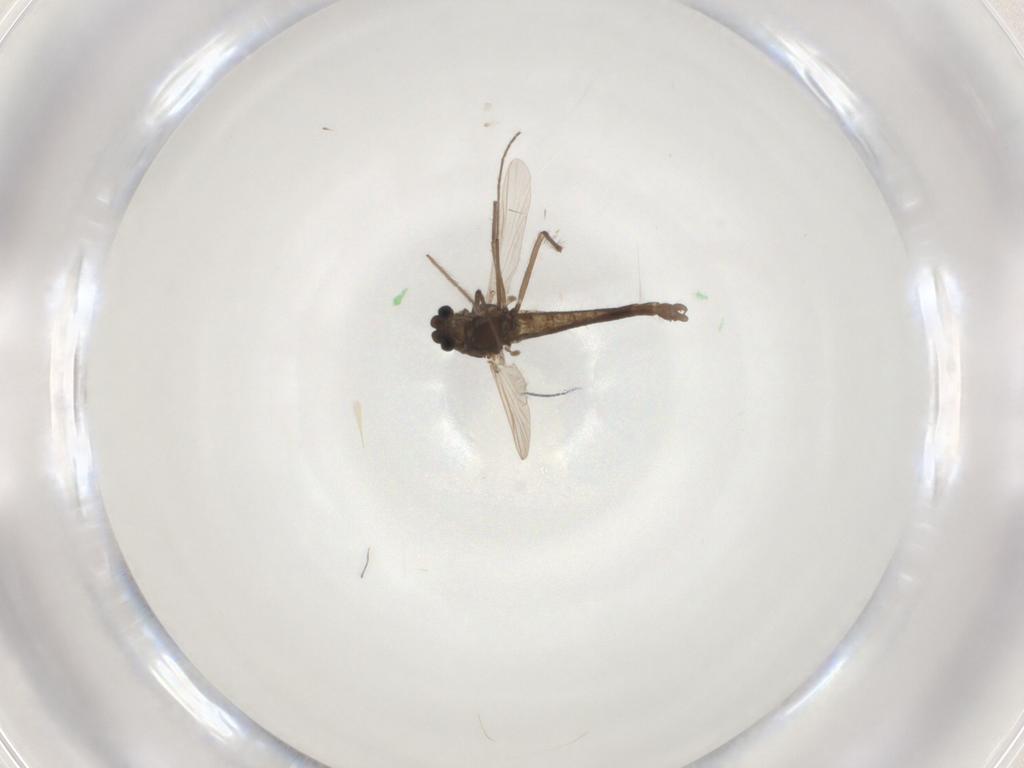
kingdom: Animalia
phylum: Arthropoda
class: Insecta
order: Diptera
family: Chironomidae
